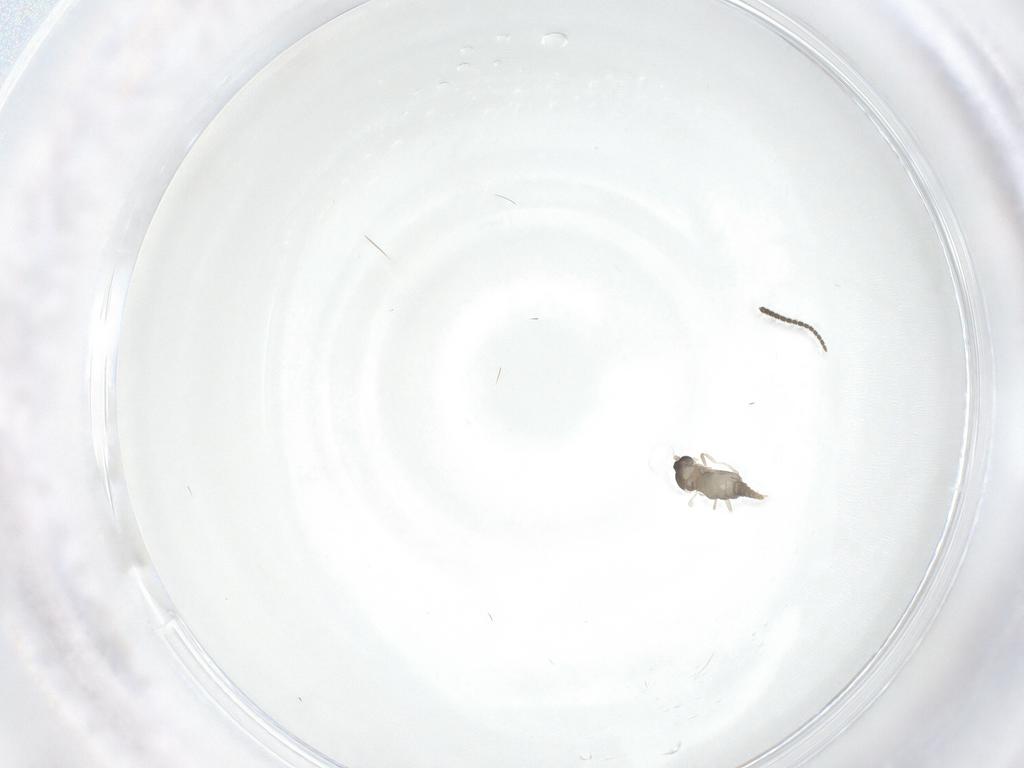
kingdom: Animalia
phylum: Arthropoda
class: Insecta
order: Diptera
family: Cecidomyiidae
